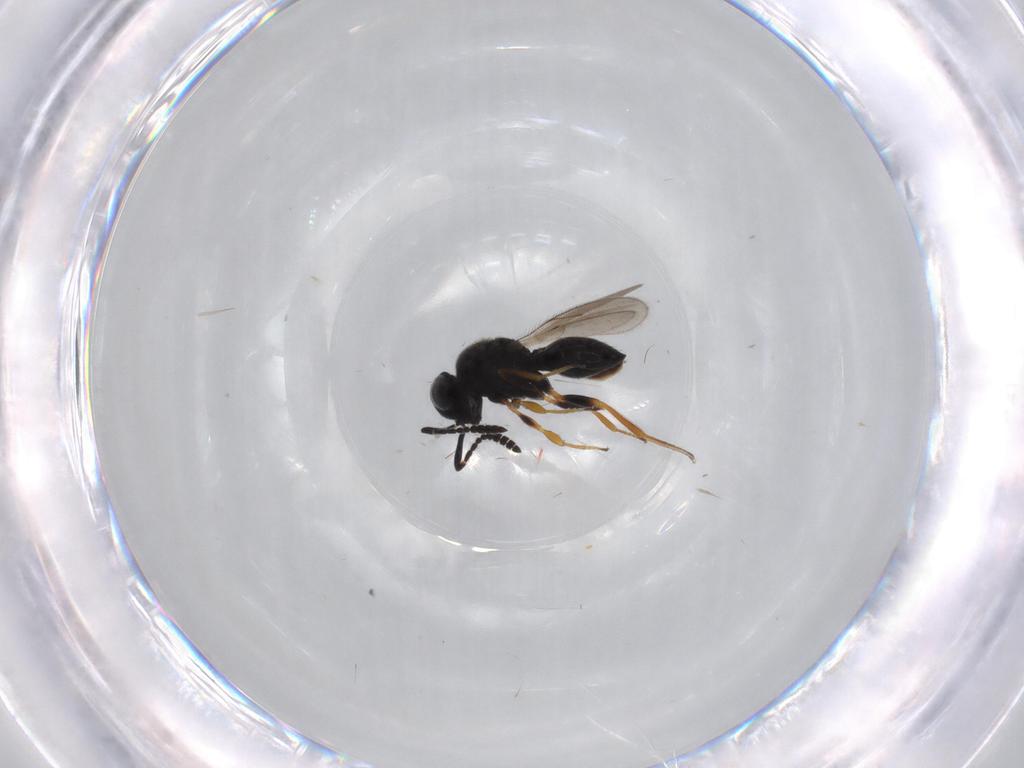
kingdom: Animalia
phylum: Arthropoda
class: Insecta
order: Hymenoptera
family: Scelionidae
